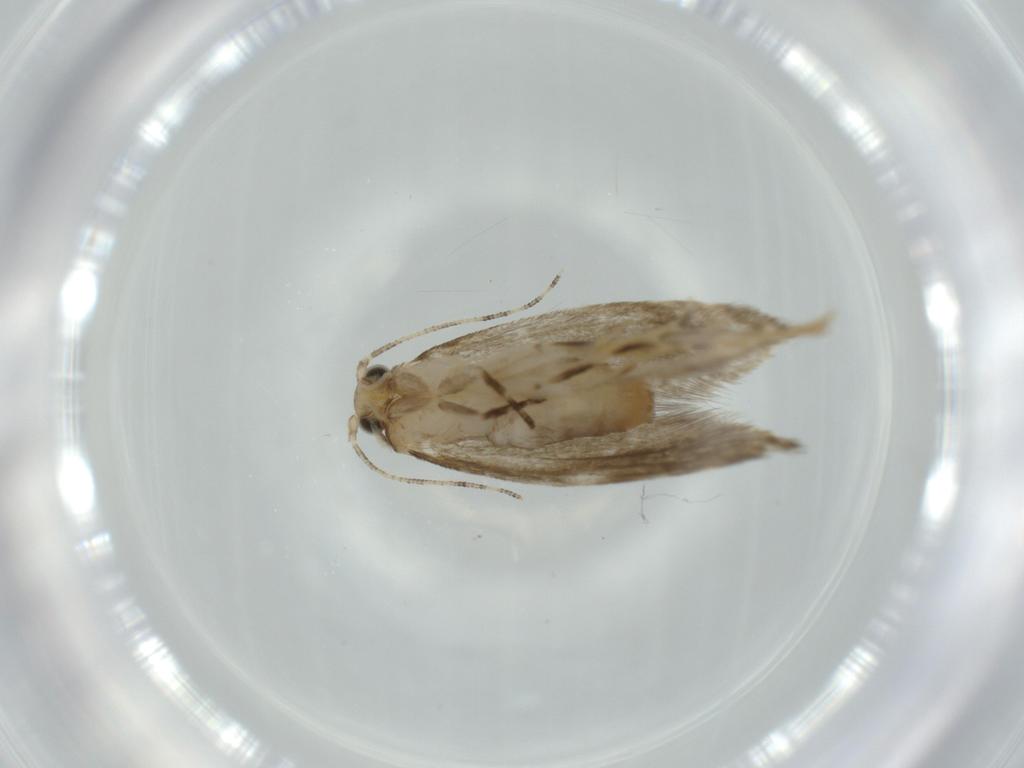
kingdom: Animalia
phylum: Arthropoda
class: Insecta
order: Lepidoptera
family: Tineidae
